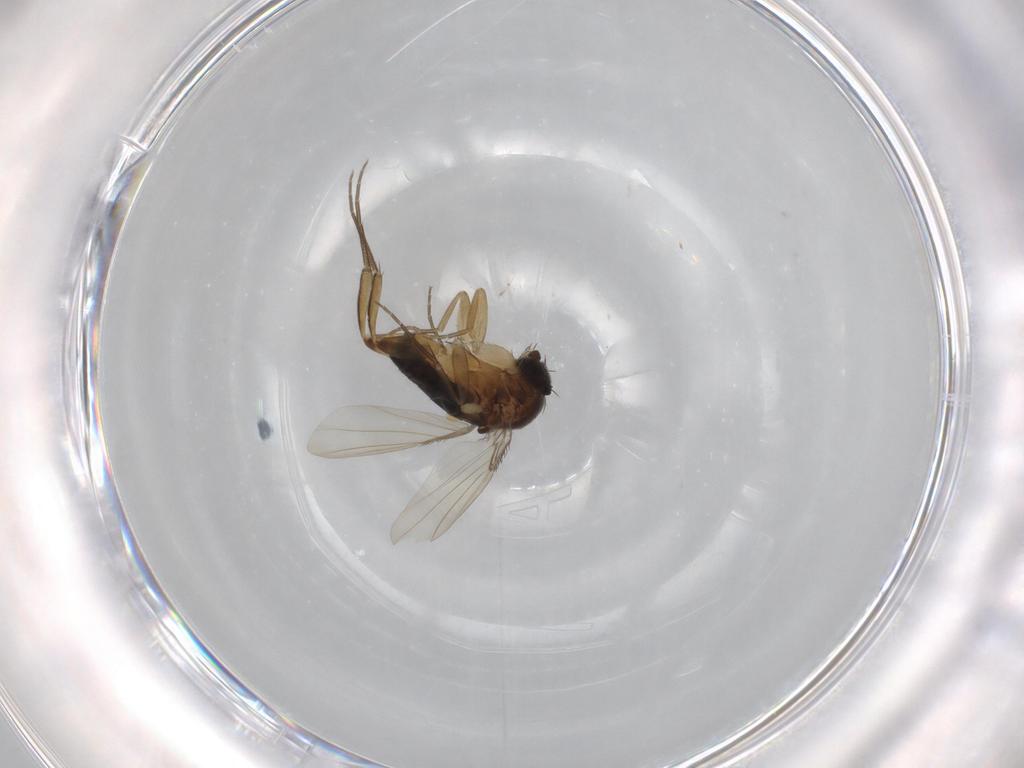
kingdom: Animalia
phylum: Arthropoda
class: Insecta
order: Diptera
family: Phoridae
